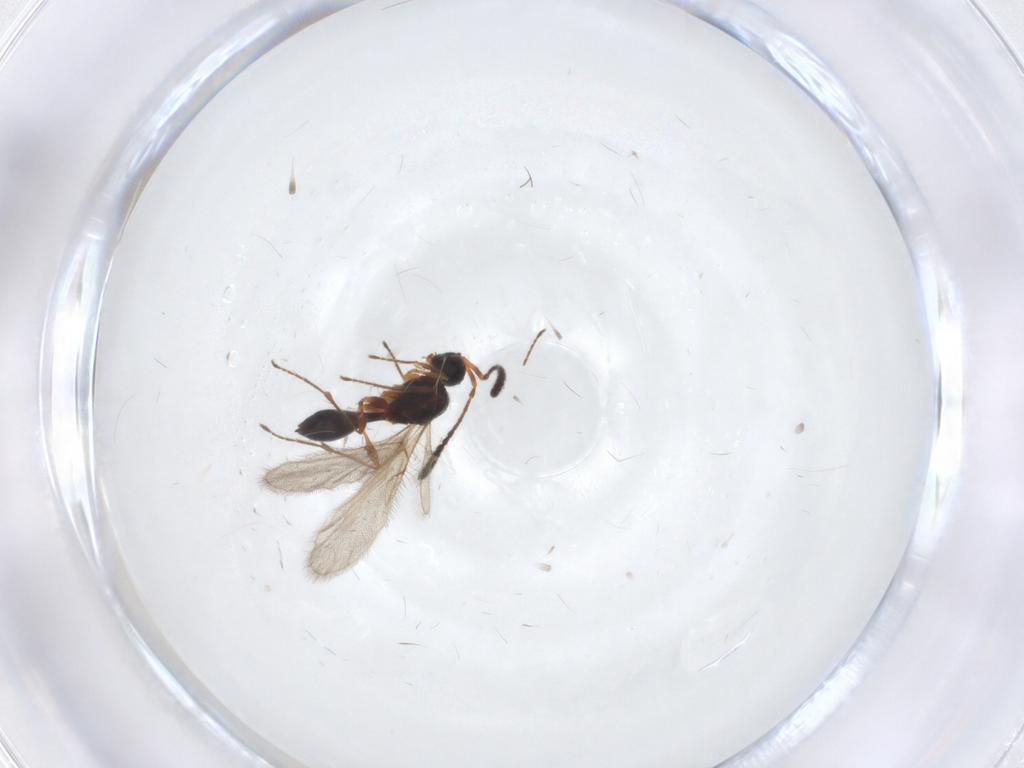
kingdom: Animalia
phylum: Arthropoda
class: Insecta
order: Hymenoptera
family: Diapriidae
